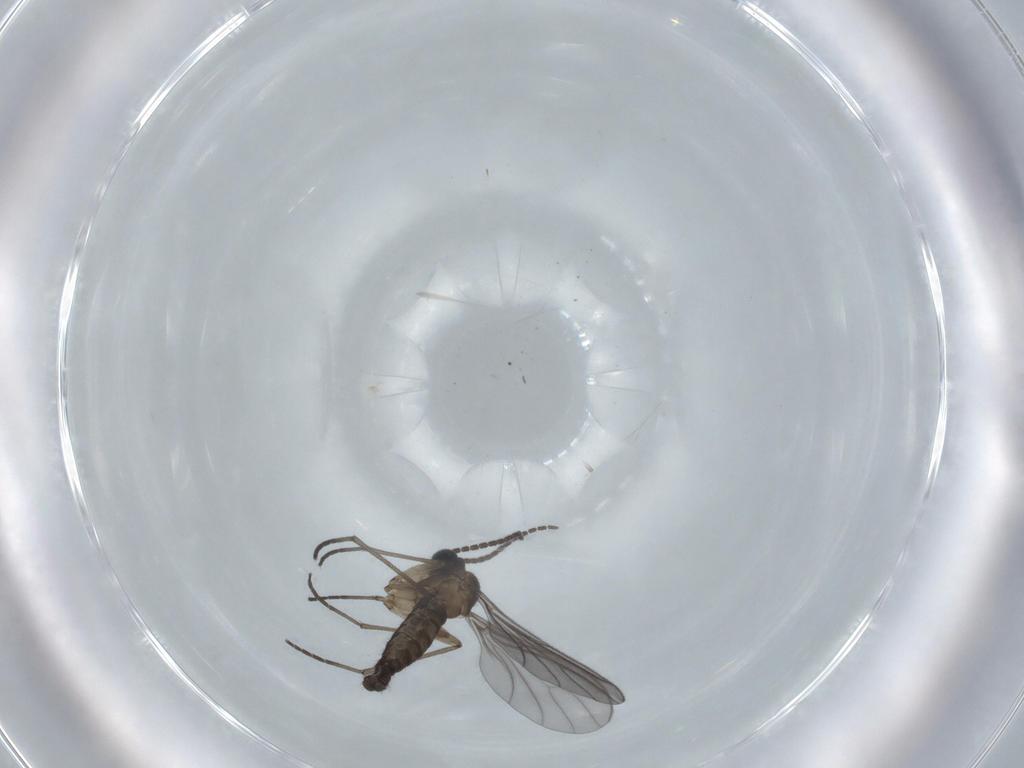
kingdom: Animalia
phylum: Arthropoda
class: Insecta
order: Diptera
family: Sciaridae
